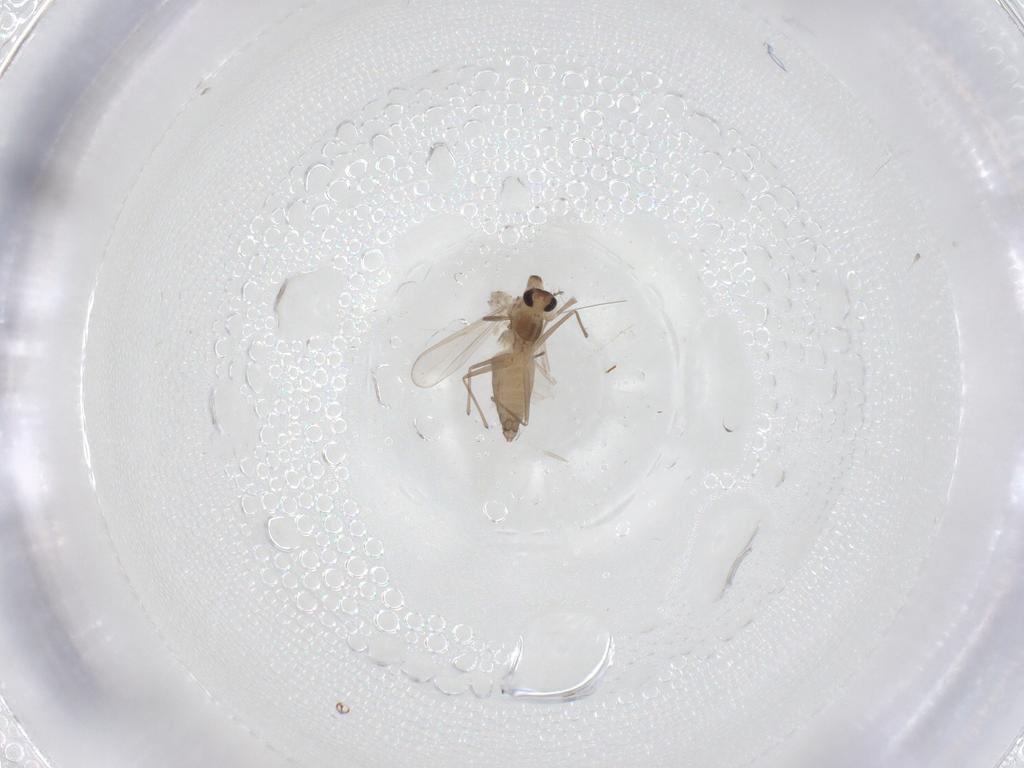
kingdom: Animalia
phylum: Arthropoda
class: Insecta
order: Diptera
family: Chironomidae
